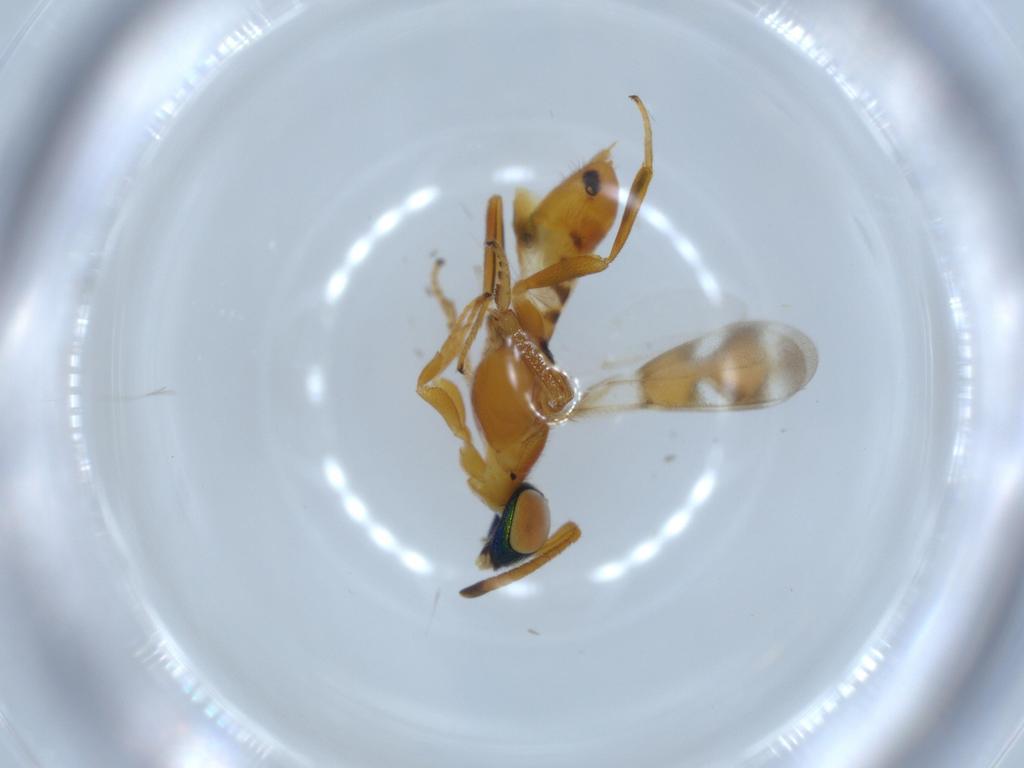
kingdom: Animalia
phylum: Arthropoda
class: Insecta
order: Hymenoptera
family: Eupelmidae
